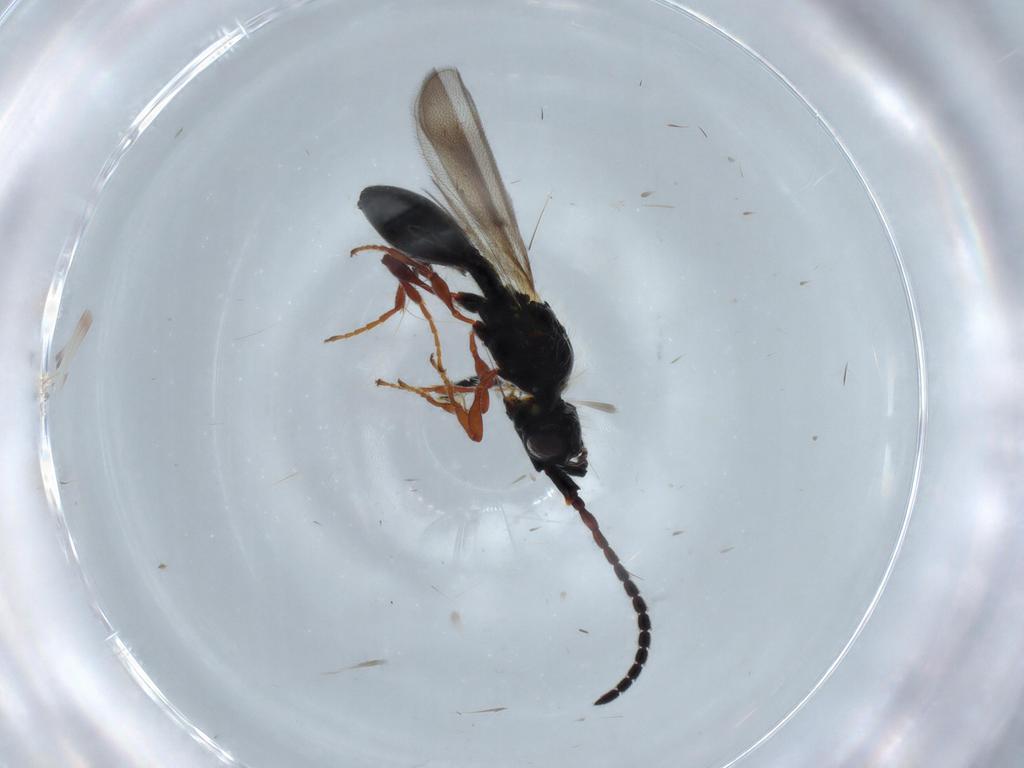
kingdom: Animalia
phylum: Arthropoda
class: Insecta
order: Hymenoptera
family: Diapriidae
